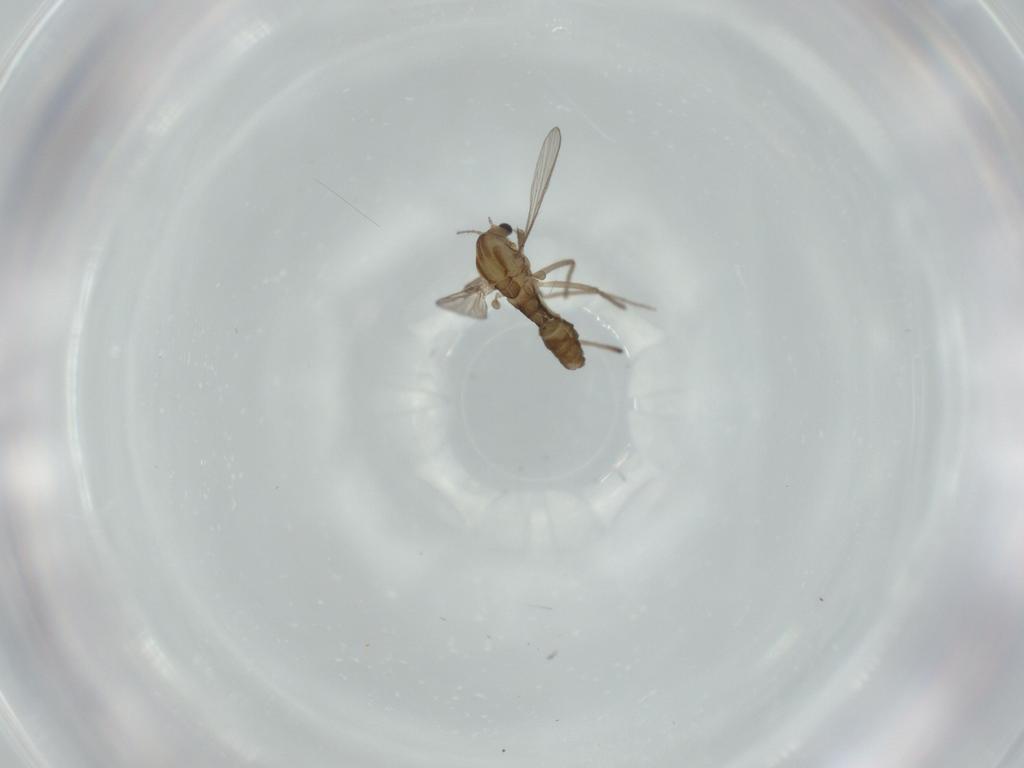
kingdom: Animalia
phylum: Arthropoda
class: Insecta
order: Diptera
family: Chironomidae
